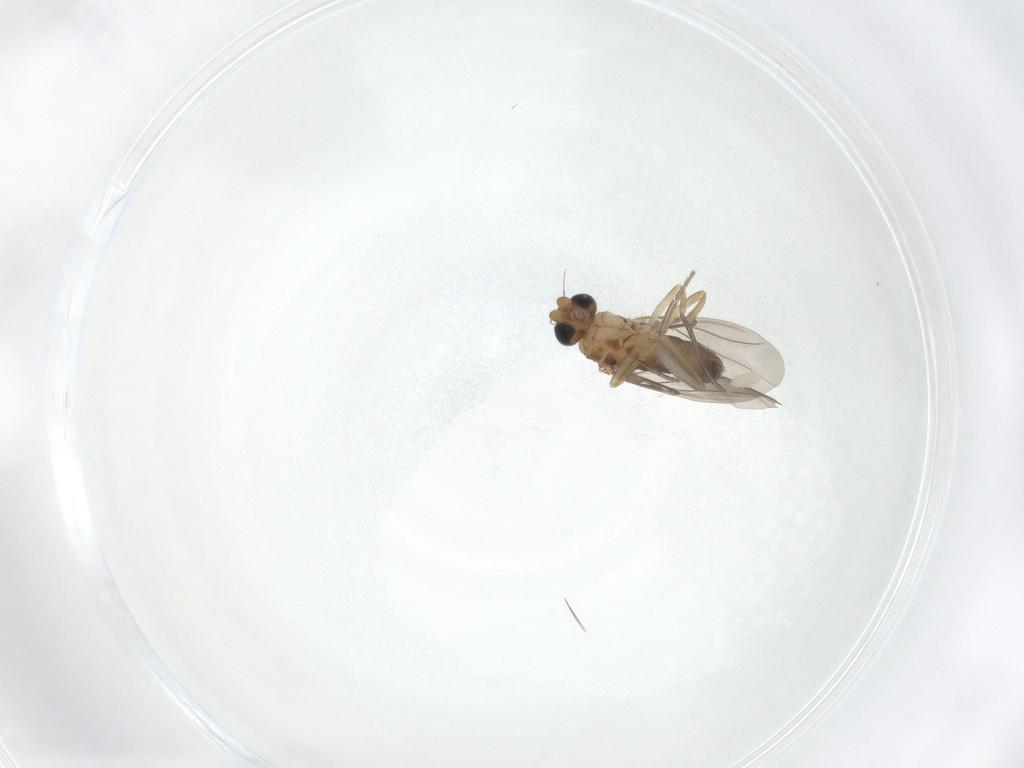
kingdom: Animalia
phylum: Arthropoda
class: Insecta
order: Diptera
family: Phoridae
